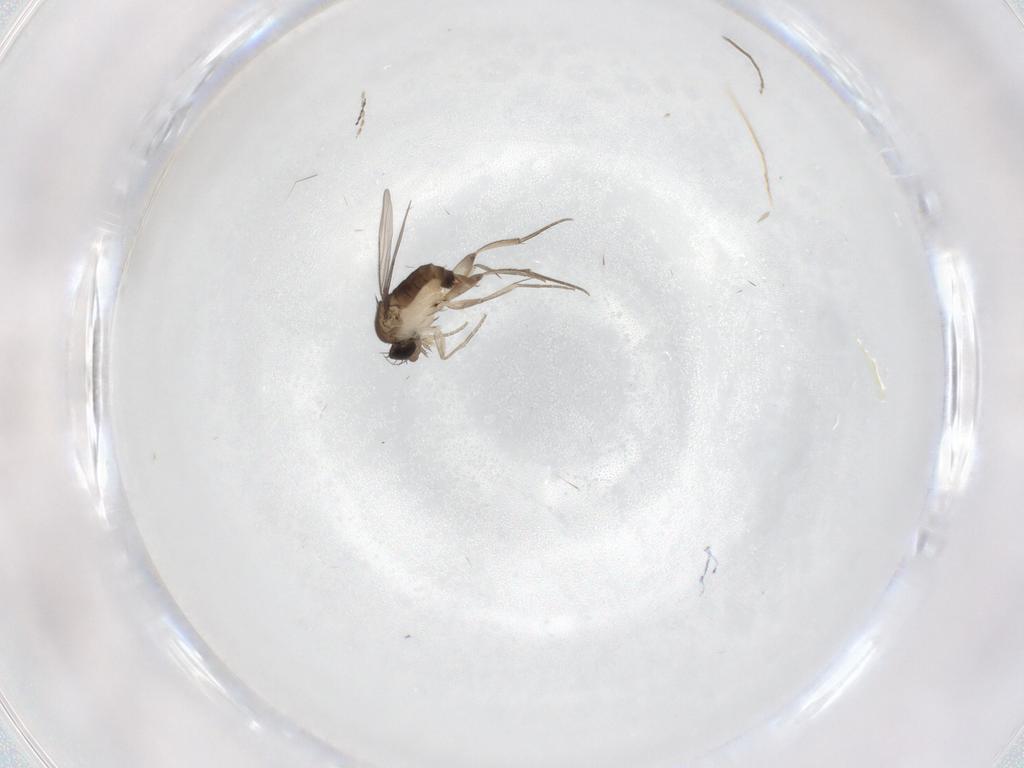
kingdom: Animalia
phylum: Arthropoda
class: Insecta
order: Diptera
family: Phoridae
